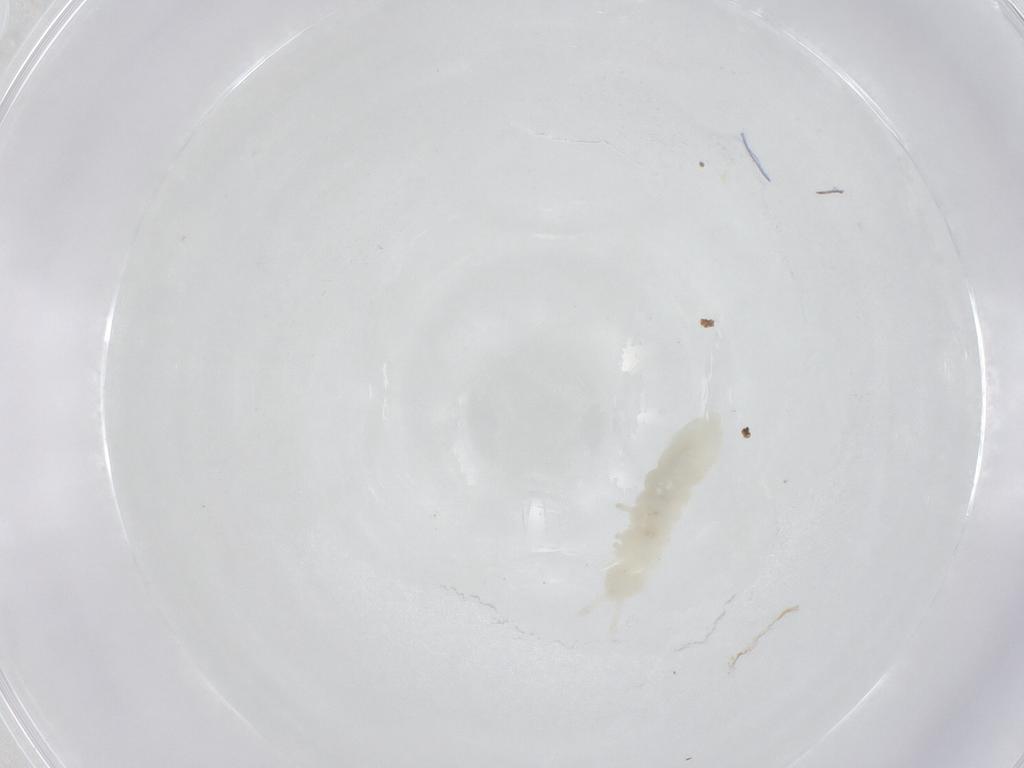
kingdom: Animalia
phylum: Arthropoda
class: Collembola
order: Poduromorpha
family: Onychiuridae
